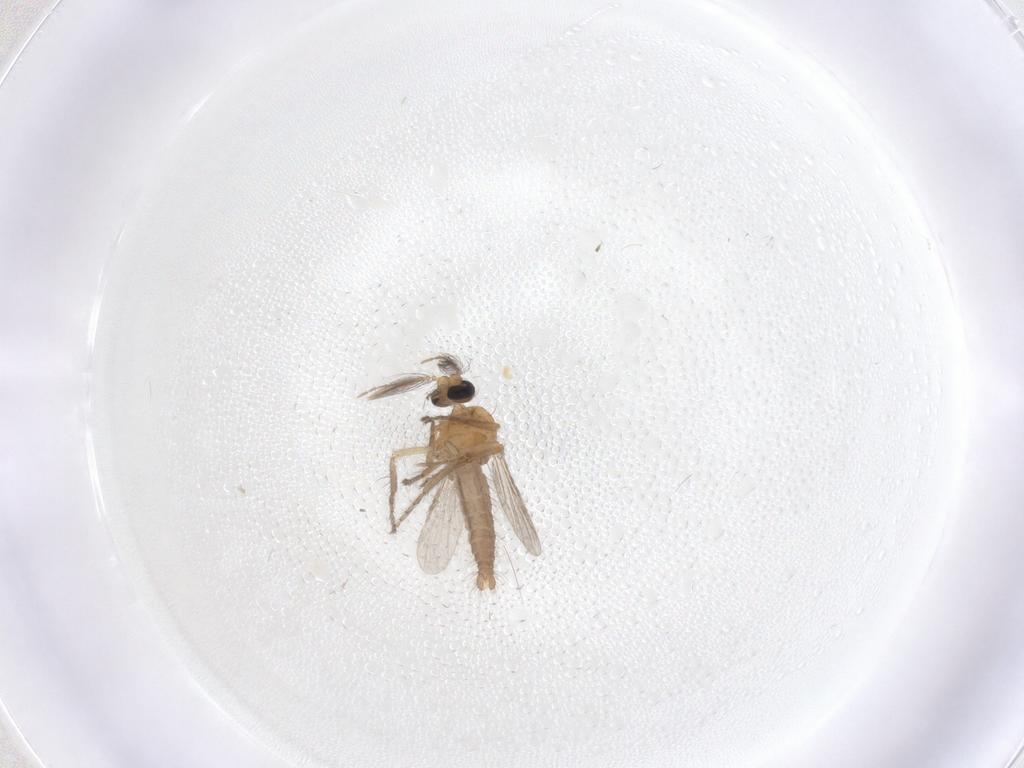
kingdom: Animalia
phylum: Arthropoda
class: Insecta
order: Diptera
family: Ceratopogonidae
